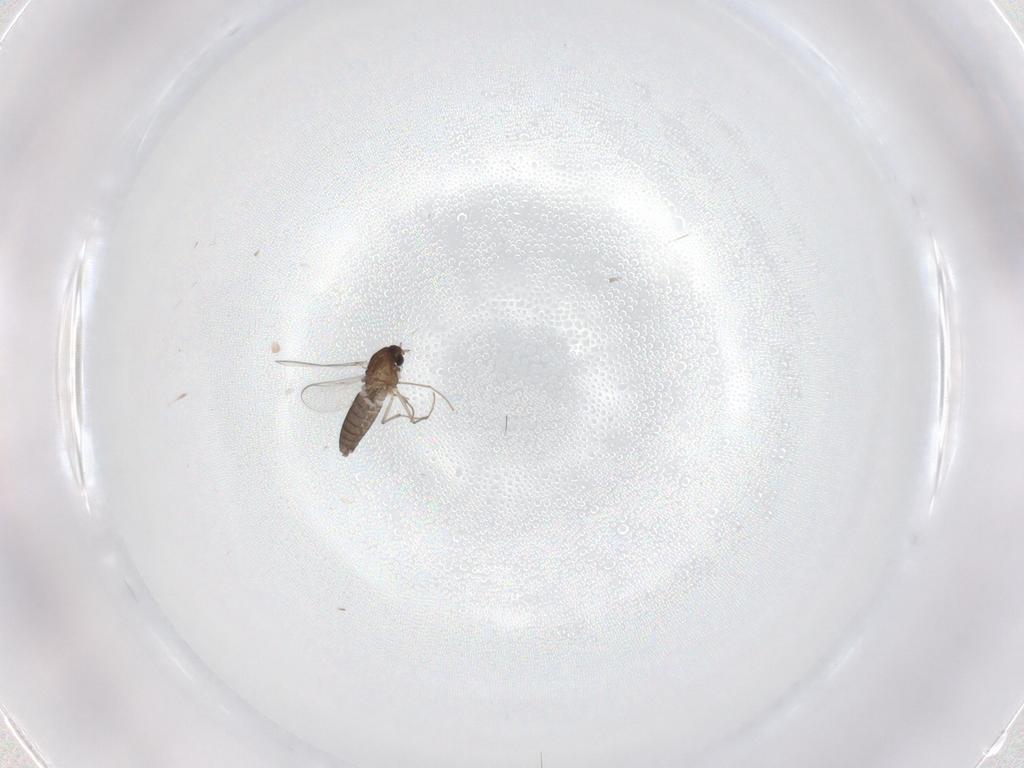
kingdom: Animalia
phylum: Arthropoda
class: Insecta
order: Diptera
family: Chironomidae
